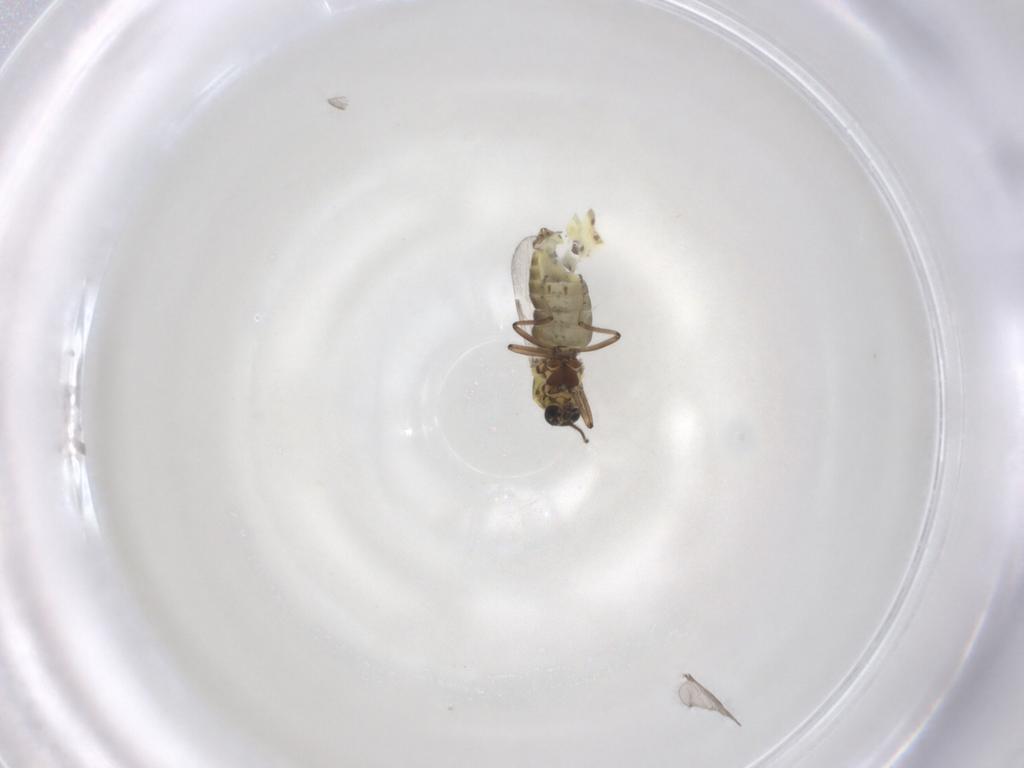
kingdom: Animalia
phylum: Arthropoda
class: Insecta
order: Diptera
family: Ceratopogonidae
